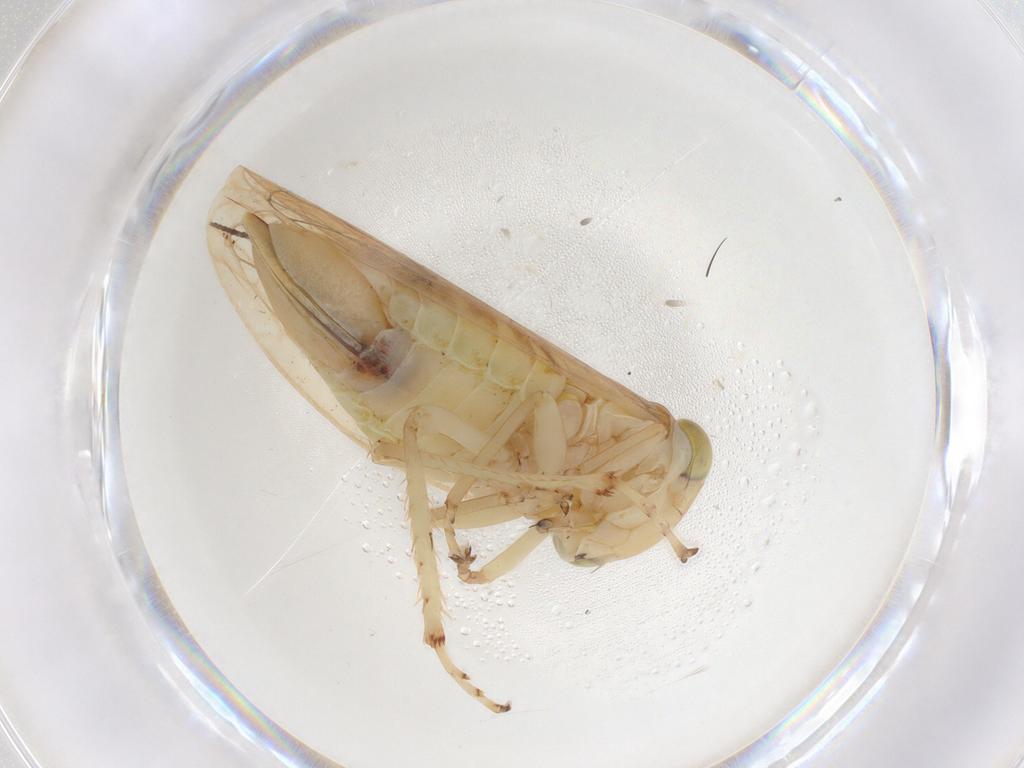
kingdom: Animalia
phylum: Arthropoda
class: Insecta
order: Hemiptera
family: Cicadellidae
